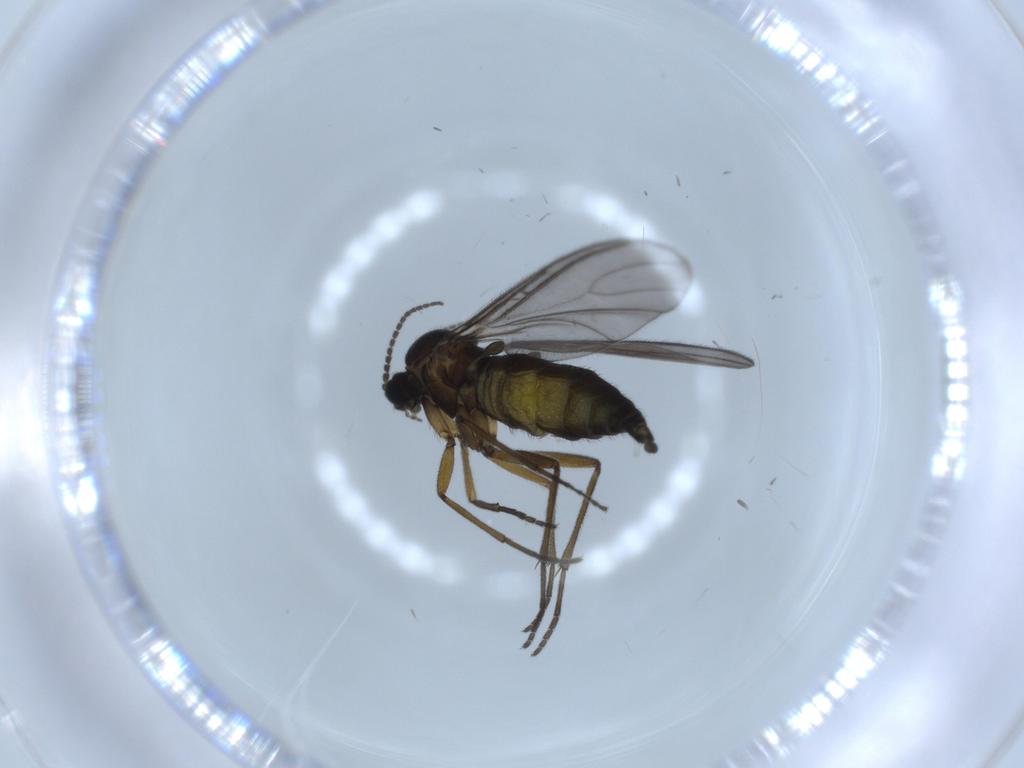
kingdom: Animalia
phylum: Arthropoda
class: Insecta
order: Diptera
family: Sciaridae
